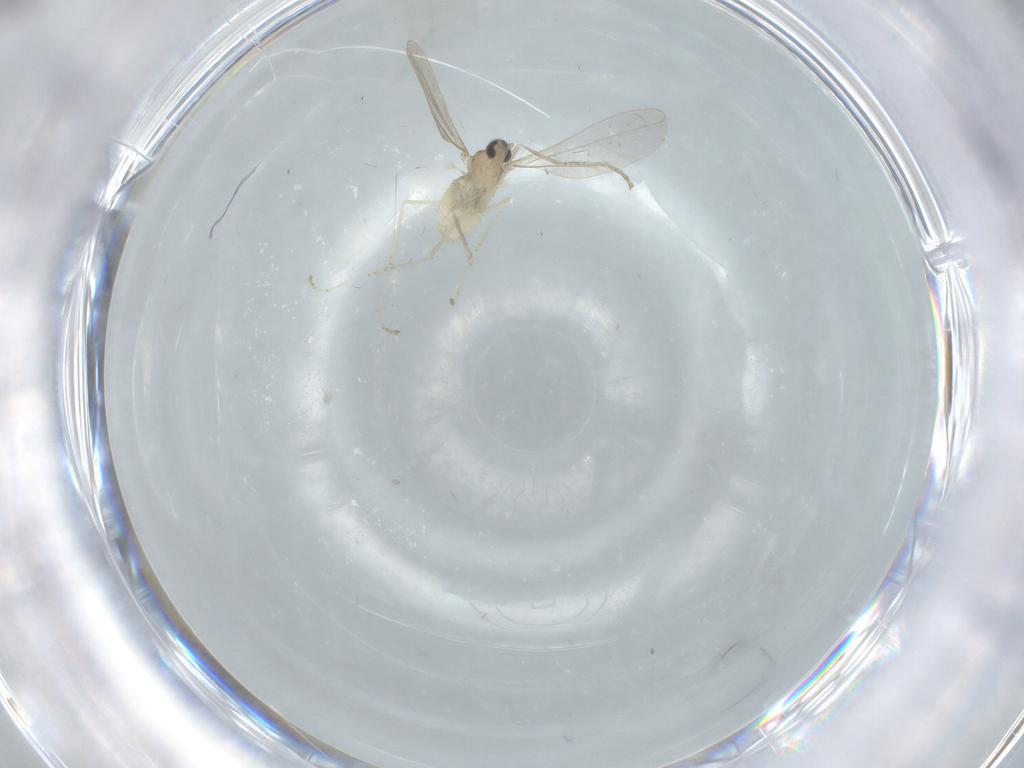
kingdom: Animalia
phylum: Arthropoda
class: Insecta
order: Diptera
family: Cecidomyiidae
